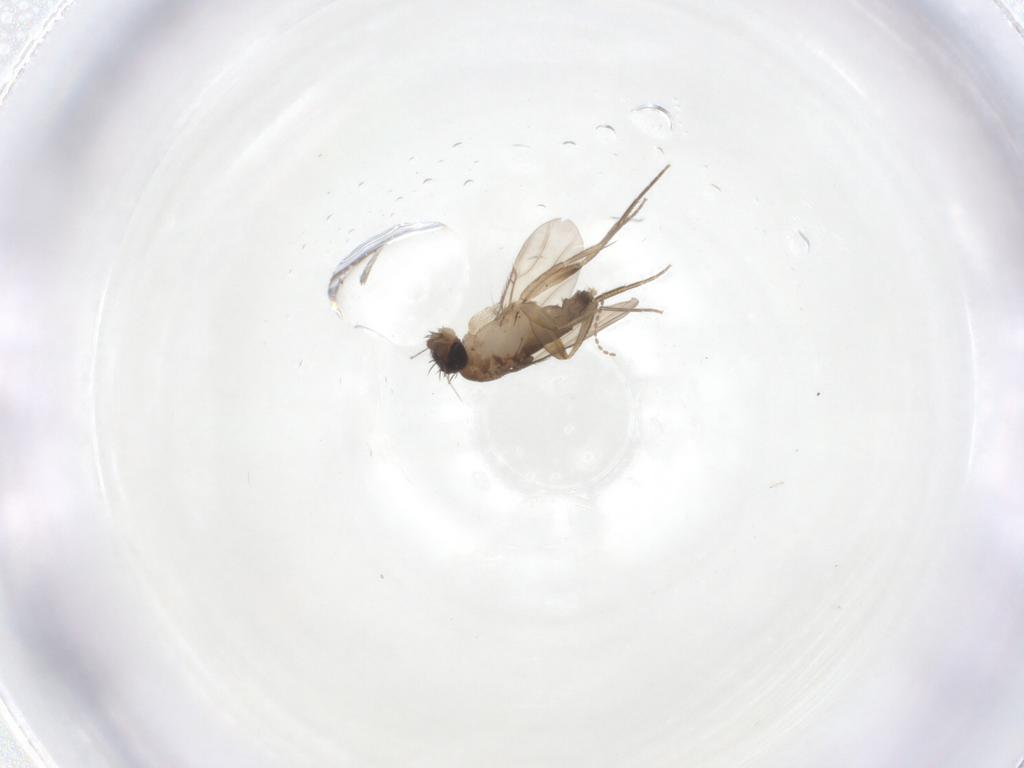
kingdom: Animalia
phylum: Arthropoda
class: Insecta
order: Diptera
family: Phoridae
